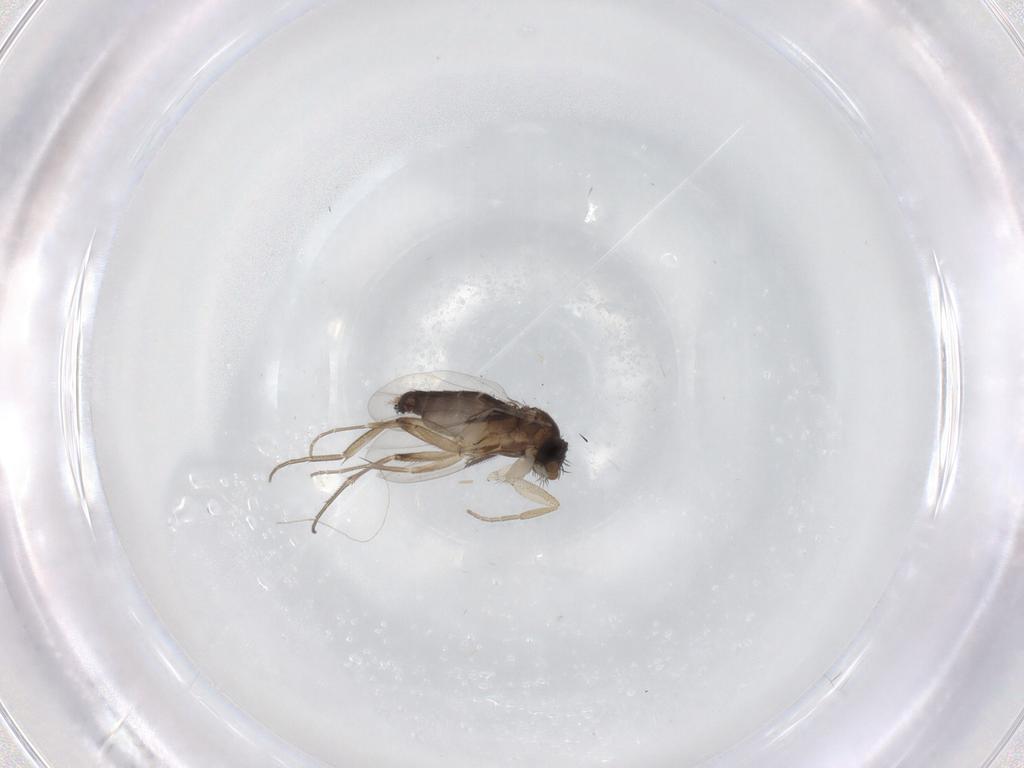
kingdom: Animalia
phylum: Arthropoda
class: Insecta
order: Diptera
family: Phoridae
